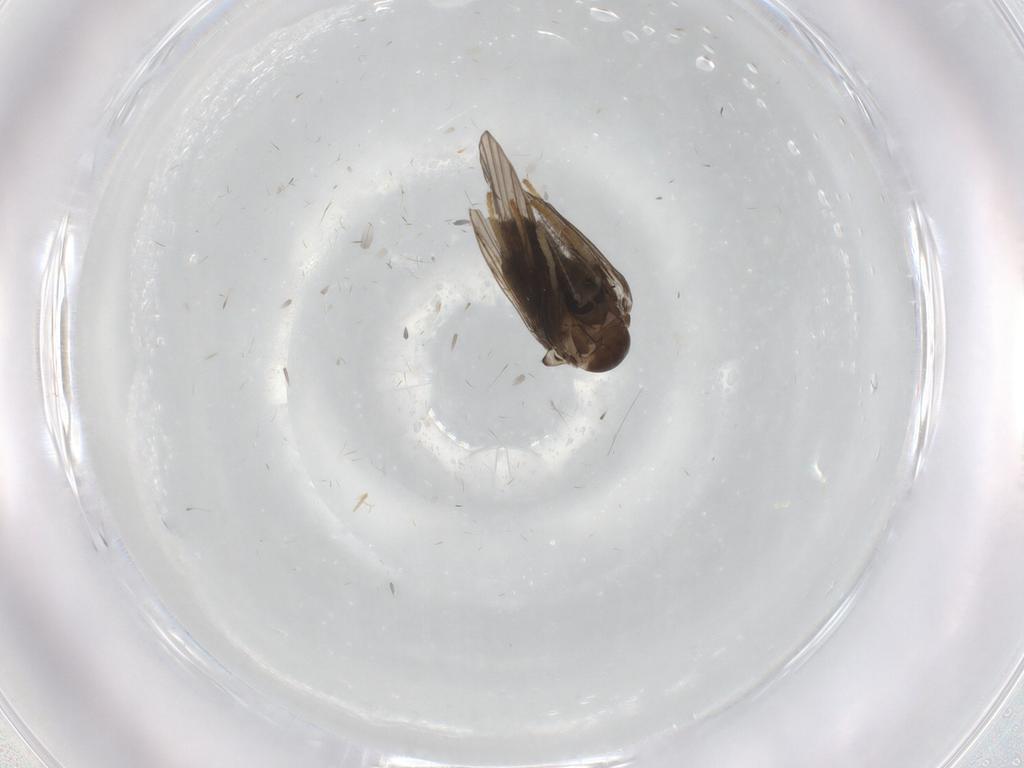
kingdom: Animalia
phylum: Arthropoda
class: Insecta
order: Diptera
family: Psychodidae
